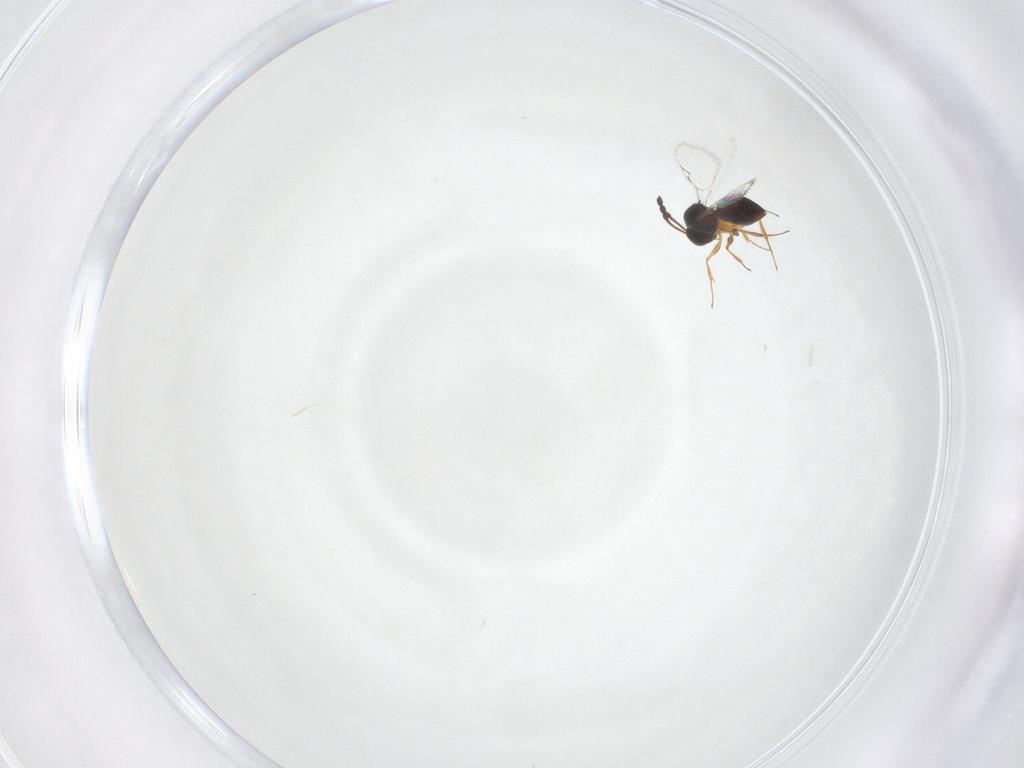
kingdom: Animalia
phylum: Arthropoda
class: Insecta
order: Hymenoptera
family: Figitidae
